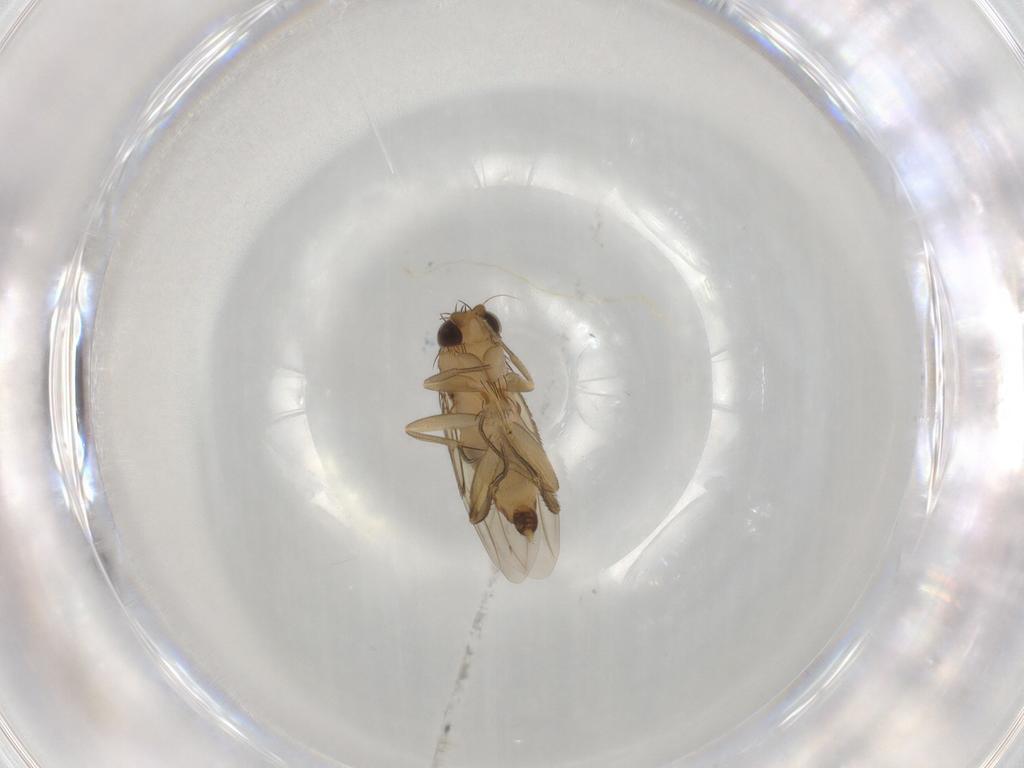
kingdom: Animalia
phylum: Arthropoda
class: Insecta
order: Diptera
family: Phoridae
